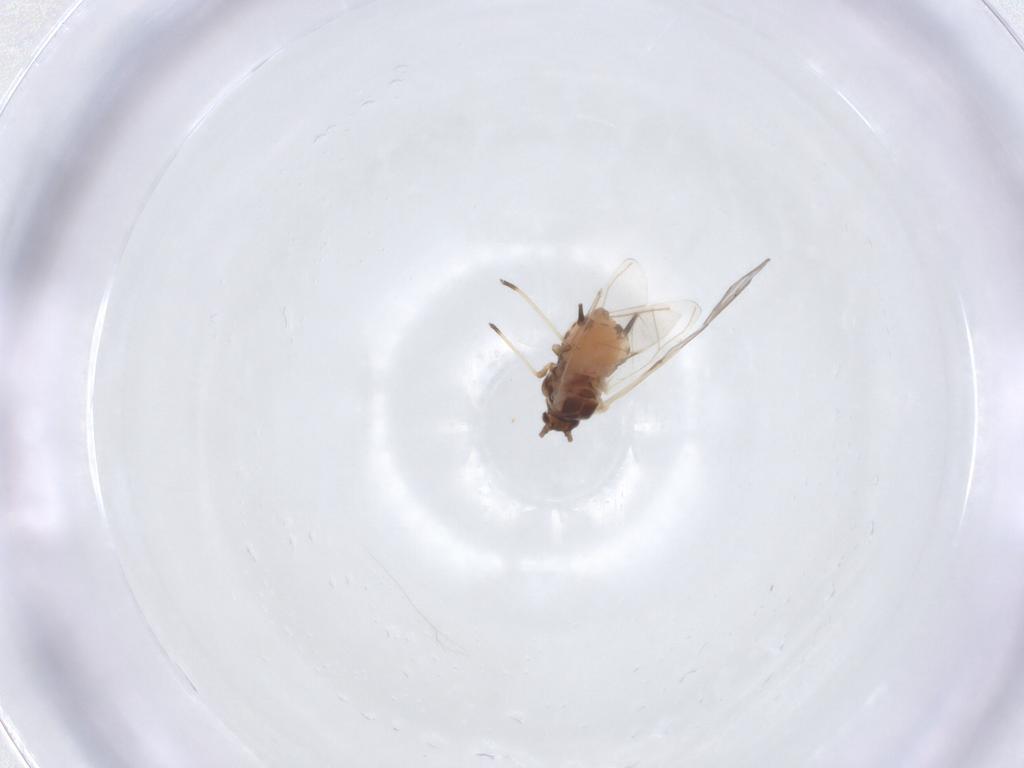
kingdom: Animalia
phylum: Arthropoda
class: Insecta
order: Hemiptera
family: Aphididae
